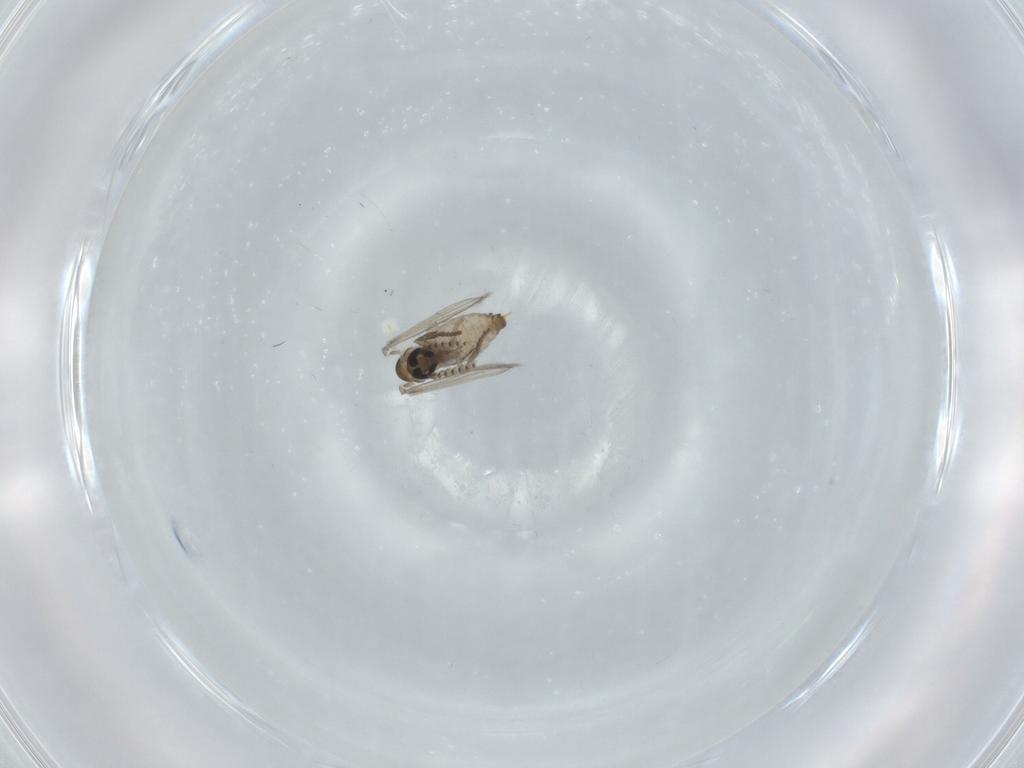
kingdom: Animalia
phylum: Arthropoda
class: Insecta
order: Diptera
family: Psychodidae
